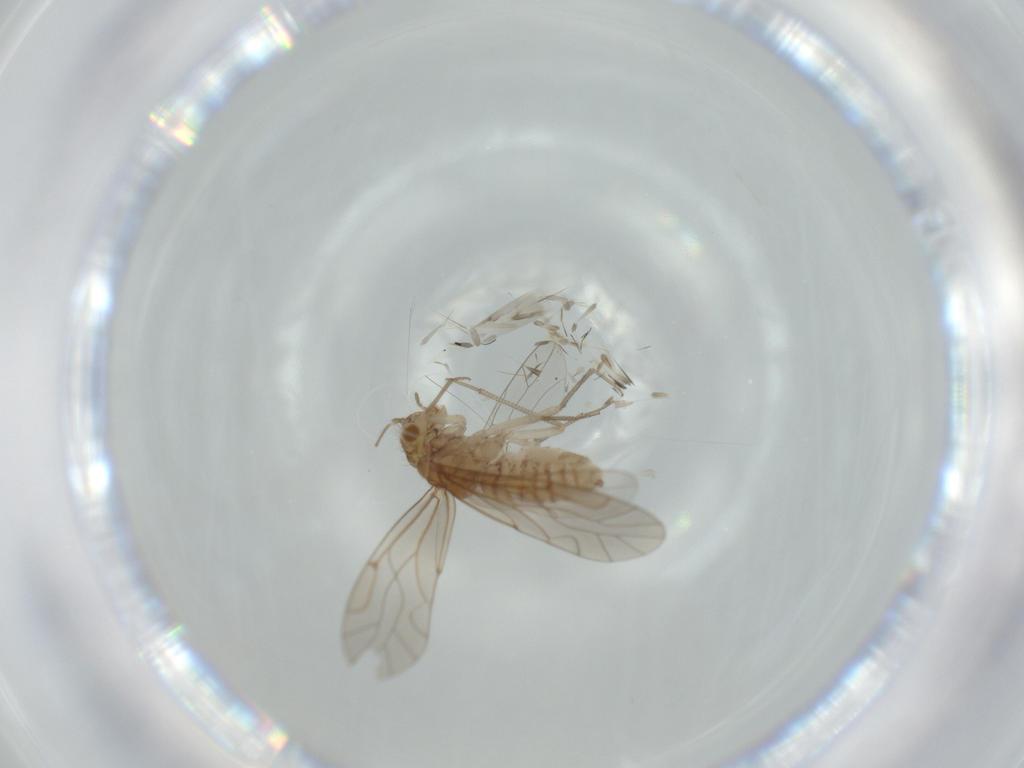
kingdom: Animalia
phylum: Arthropoda
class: Insecta
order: Psocodea
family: Lachesillidae
